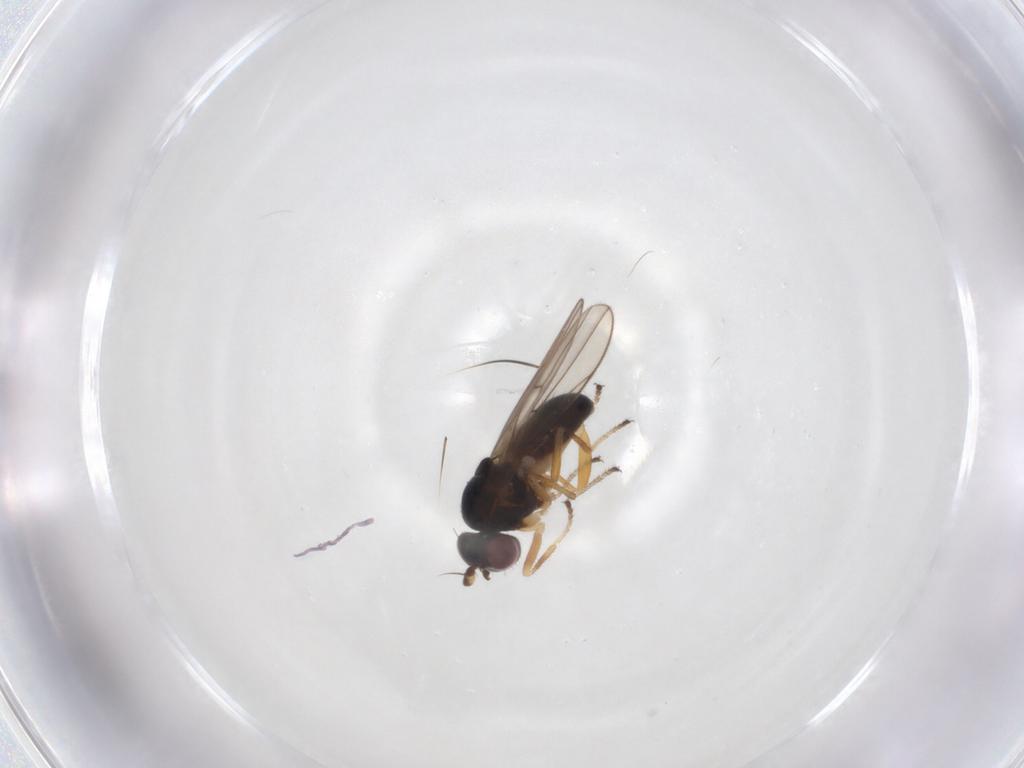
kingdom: Animalia
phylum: Arthropoda
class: Insecta
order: Diptera
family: Ephydridae
